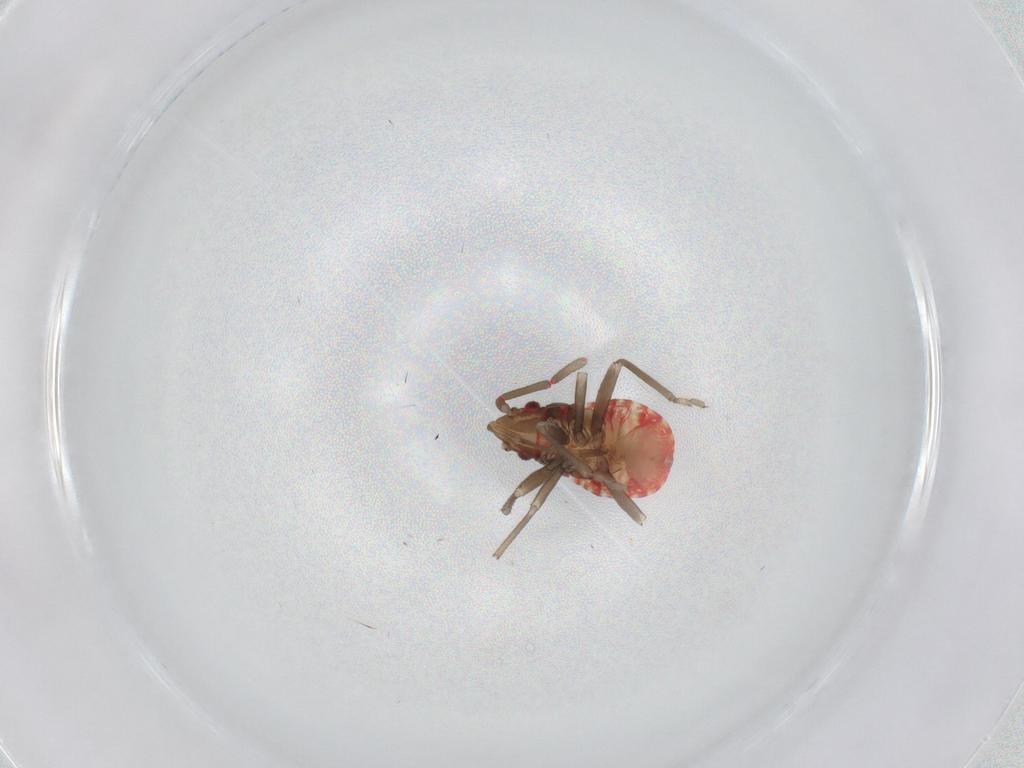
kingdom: Animalia
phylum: Arthropoda
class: Insecta
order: Hemiptera
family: Rhyparochromidae
